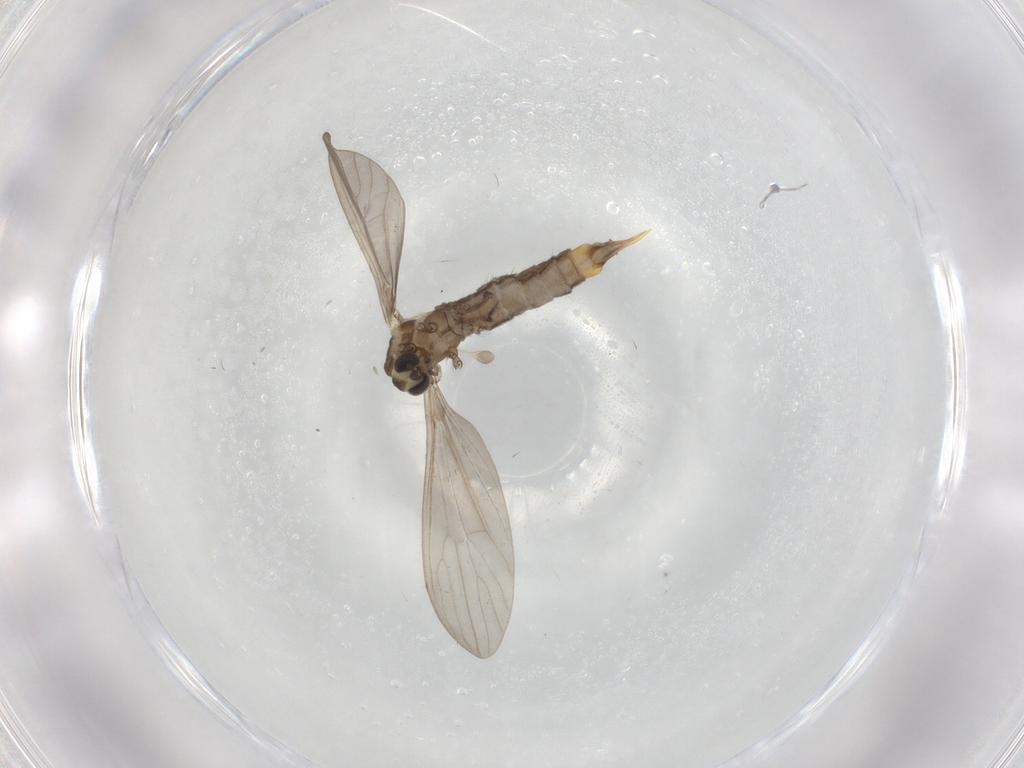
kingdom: Animalia
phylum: Arthropoda
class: Insecta
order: Diptera
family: Limoniidae
